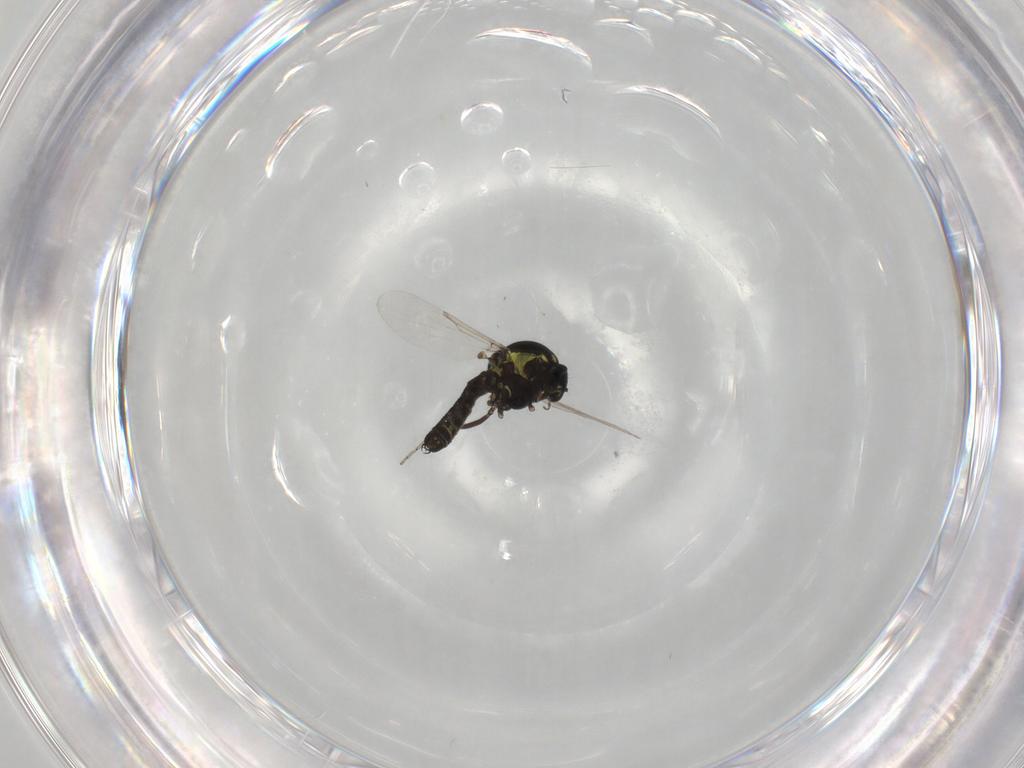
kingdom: Animalia
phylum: Arthropoda
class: Insecta
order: Diptera
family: Ceratopogonidae
